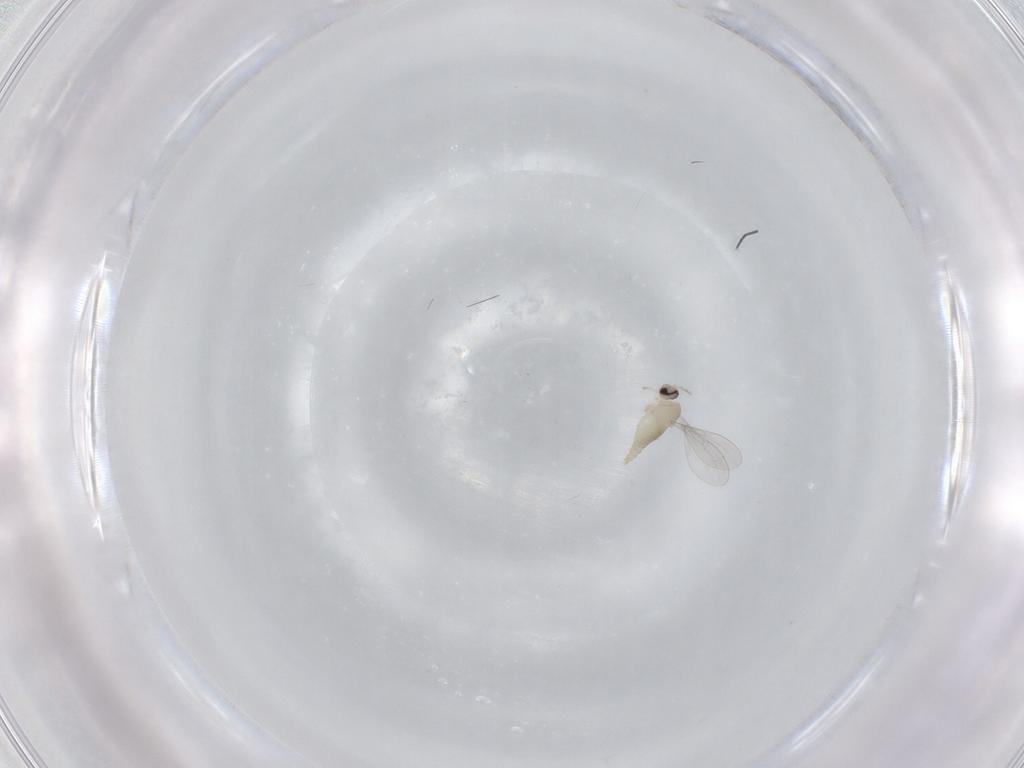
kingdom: Animalia
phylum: Arthropoda
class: Insecta
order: Diptera
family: Cecidomyiidae
